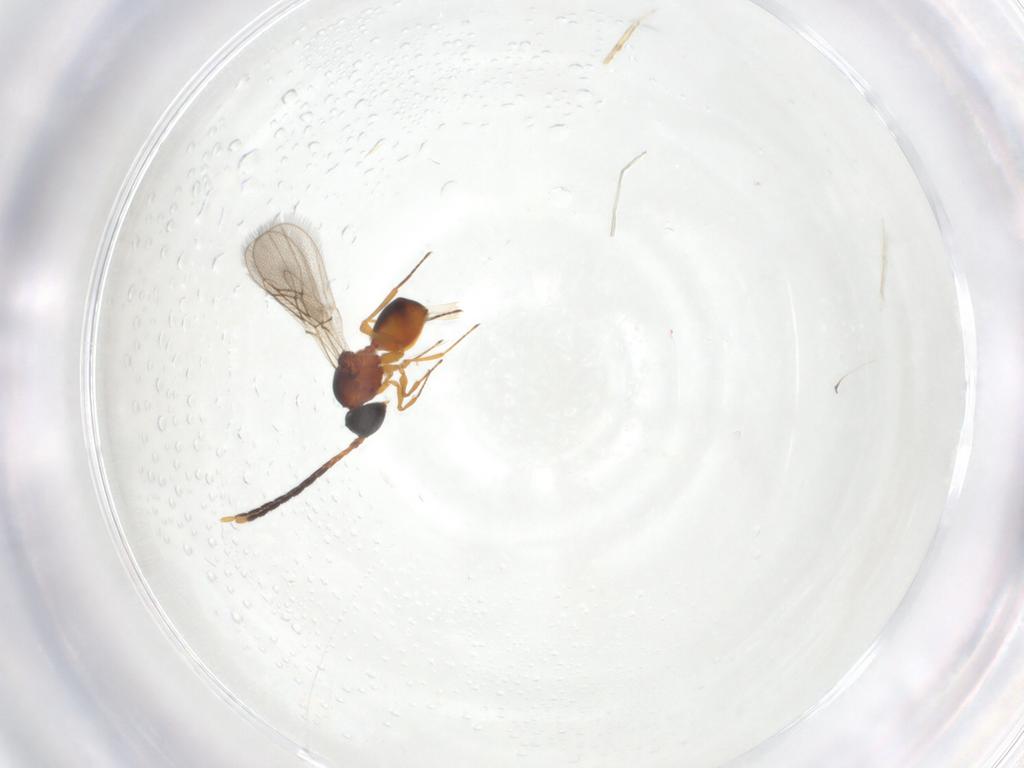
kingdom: Animalia
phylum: Arthropoda
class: Insecta
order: Hymenoptera
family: Figitidae
